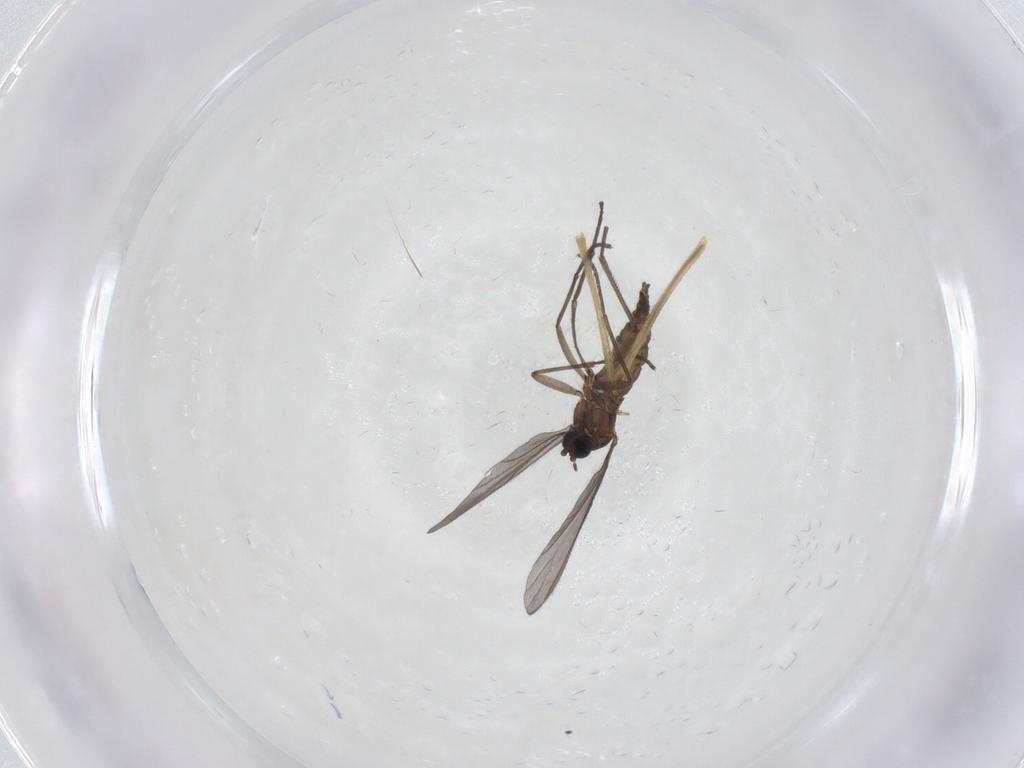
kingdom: Animalia
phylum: Arthropoda
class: Insecta
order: Diptera
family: Sciaridae
